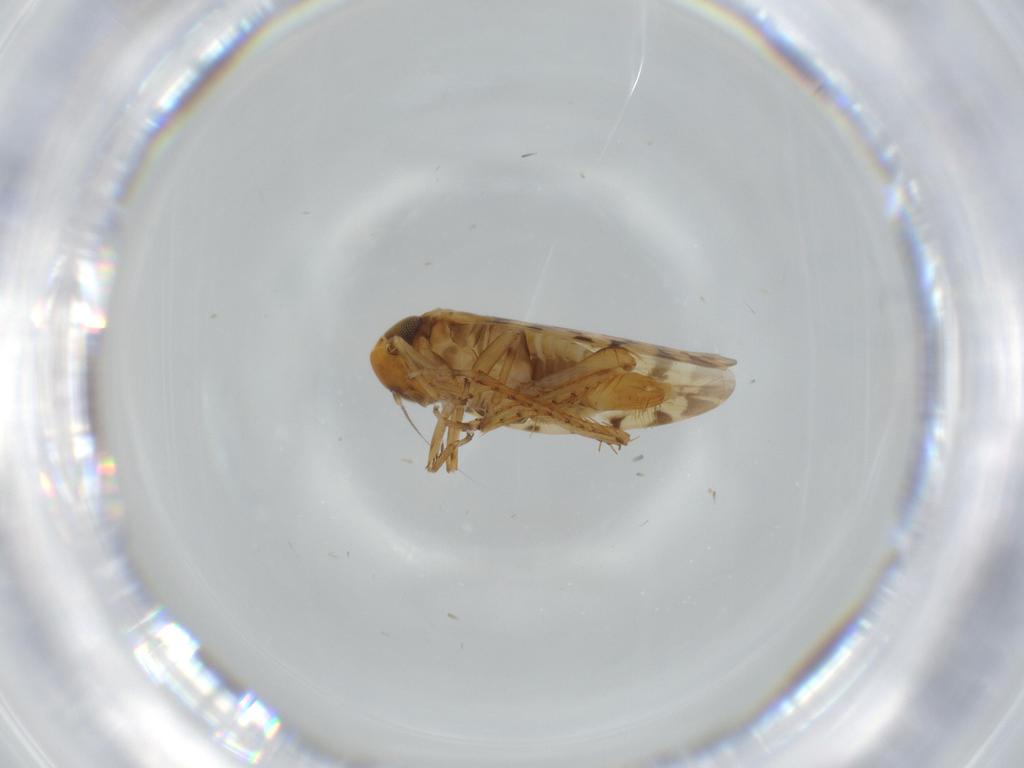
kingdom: Animalia
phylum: Arthropoda
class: Insecta
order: Hemiptera
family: Cicadellidae
